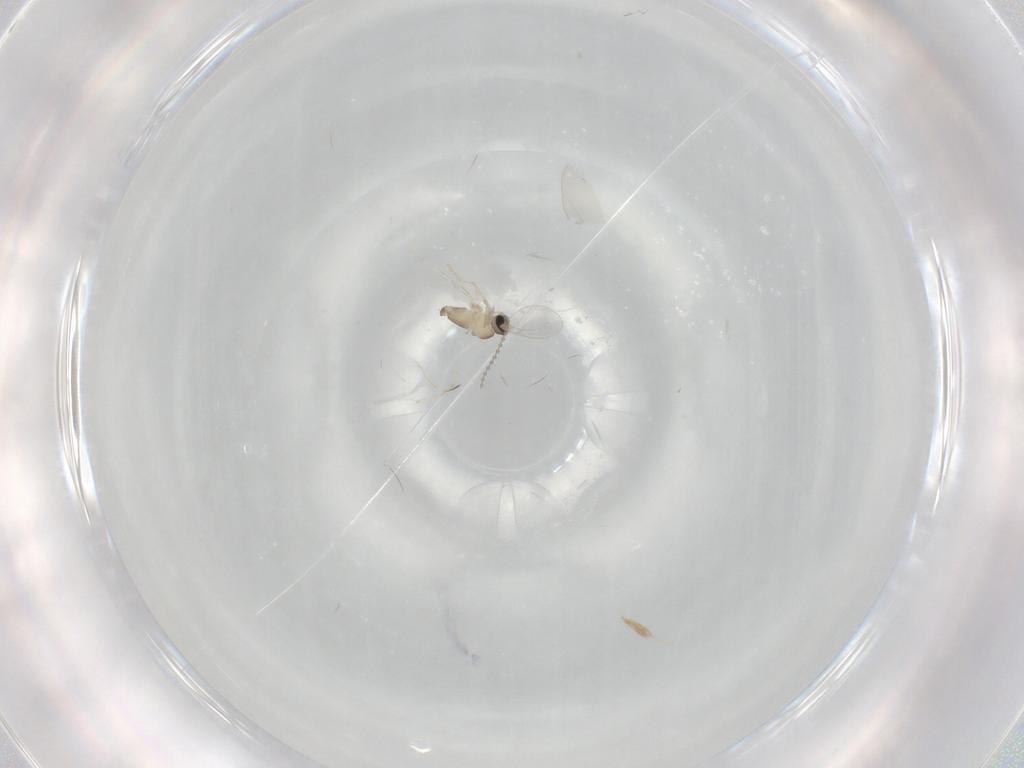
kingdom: Animalia
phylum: Arthropoda
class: Insecta
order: Diptera
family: Cecidomyiidae
